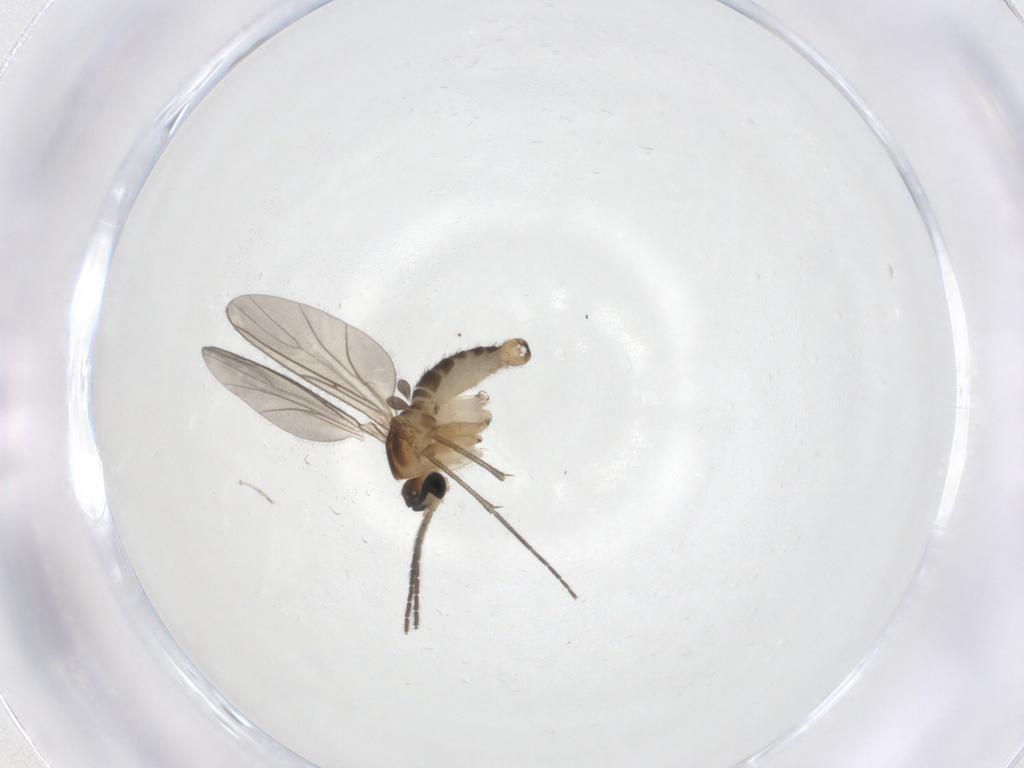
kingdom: Animalia
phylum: Arthropoda
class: Insecta
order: Diptera
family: Sciaridae
